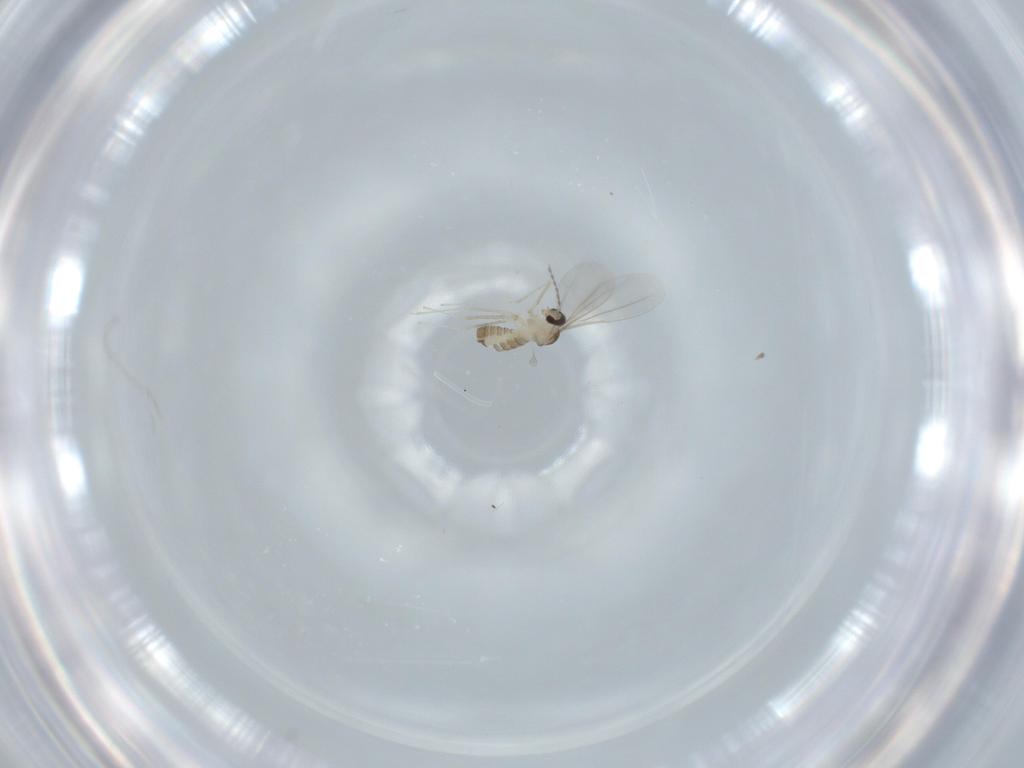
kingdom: Animalia
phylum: Arthropoda
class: Insecta
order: Diptera
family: Cecidomyiidae
